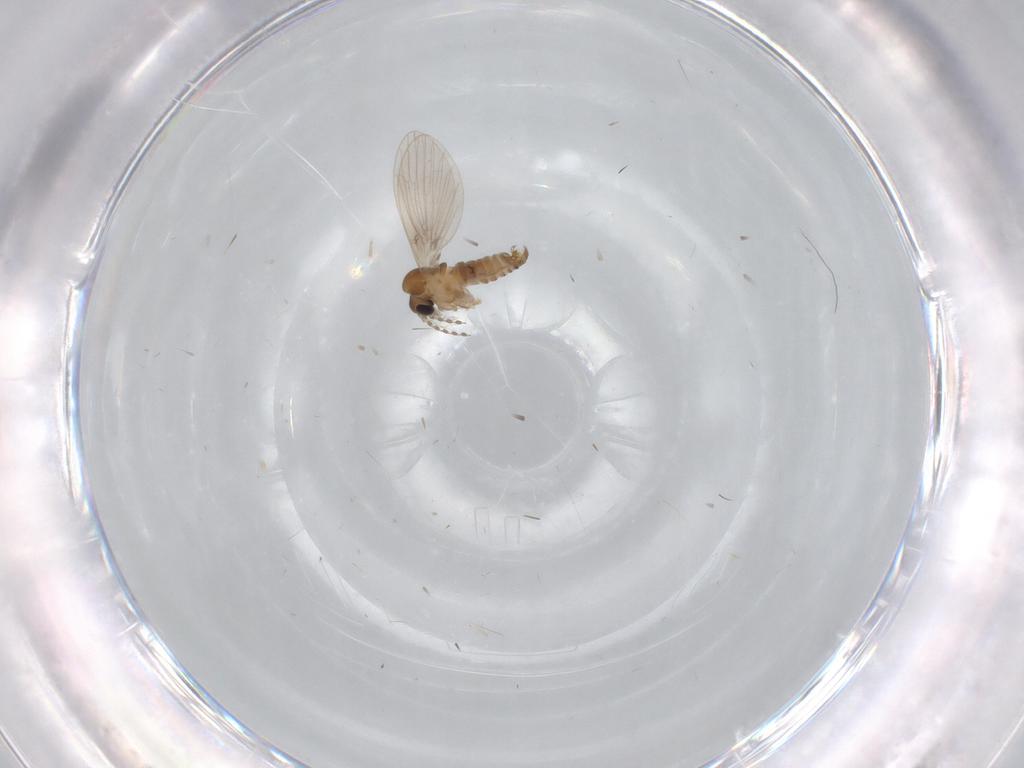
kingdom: Animalia
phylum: Arthropoda
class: Insecta
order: Diptera
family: Psychodidae
